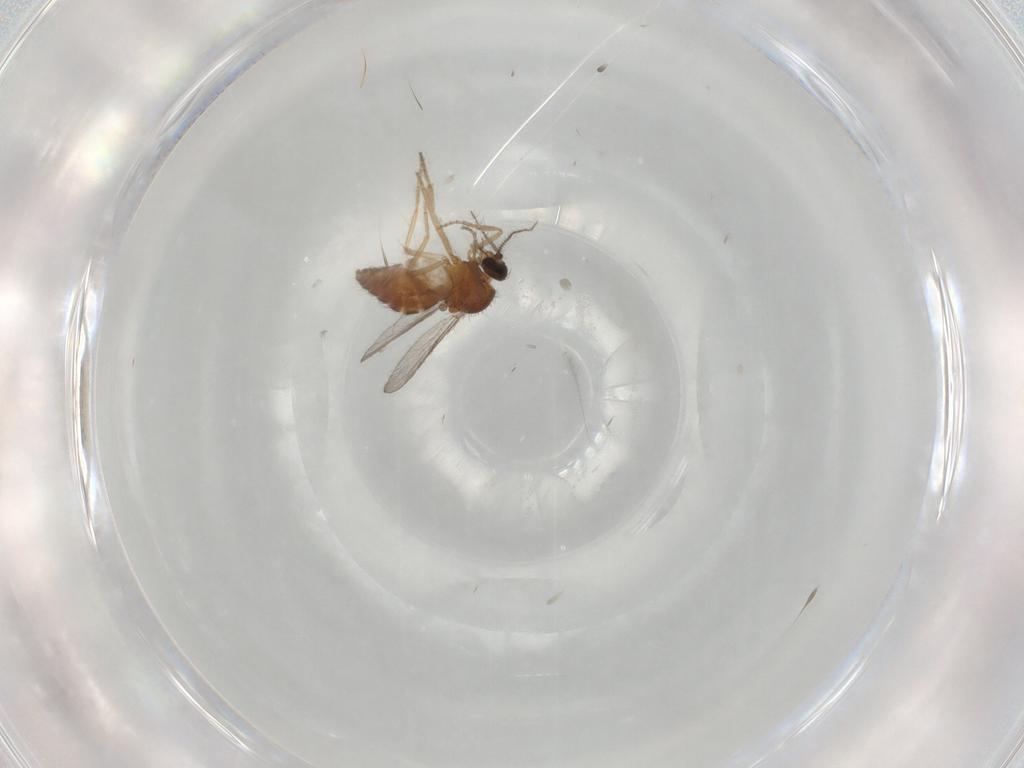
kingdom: Animalia
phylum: Arthropoda
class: Insecta
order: Diptera
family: Ceratopogonidae
